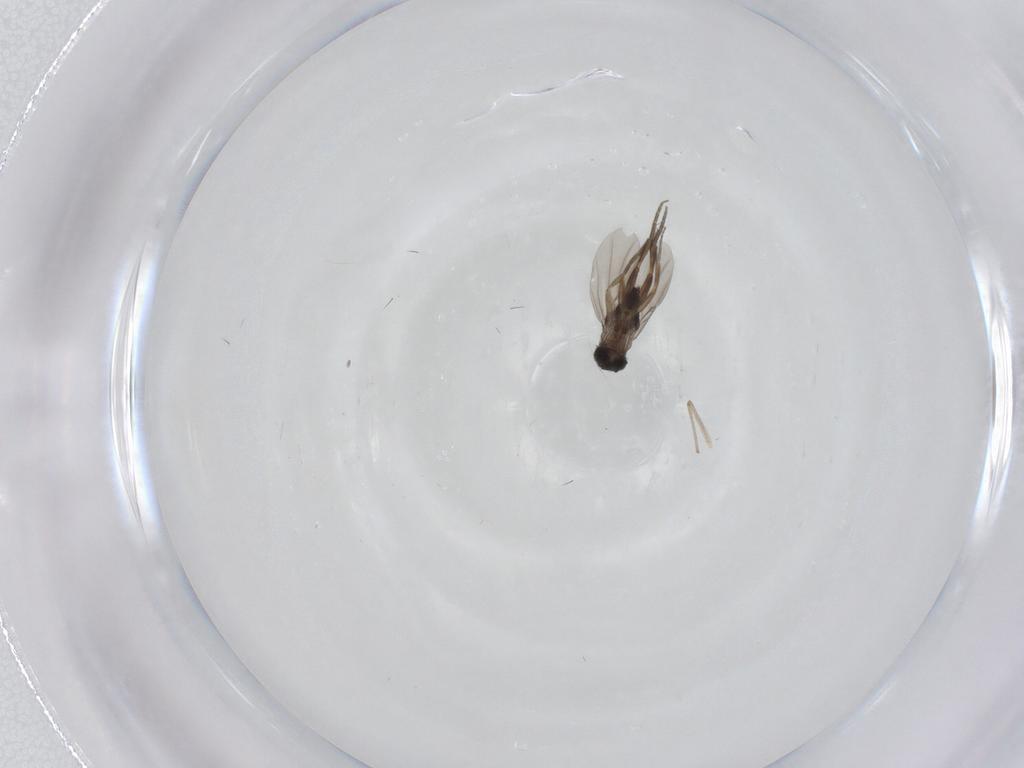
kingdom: Animalia
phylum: Arthropoda
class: Insecta
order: Diptera
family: Phoridae
